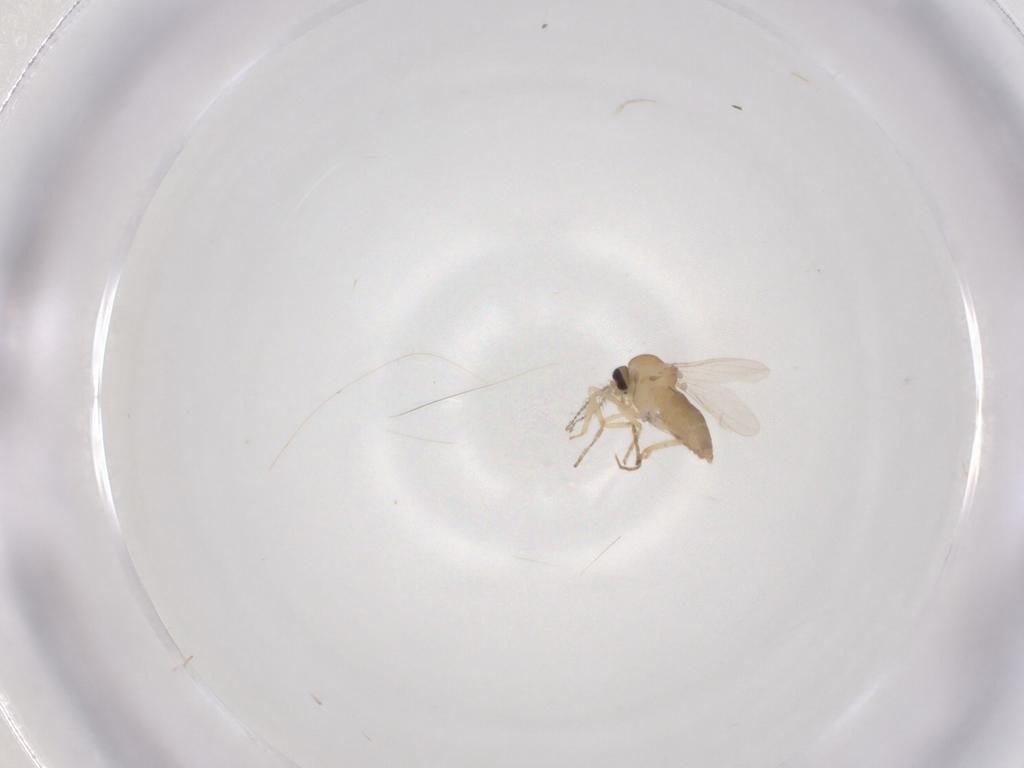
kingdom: Animalia
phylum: Arthropoda
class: Insecta
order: Diptera
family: Ceratopogonidae
